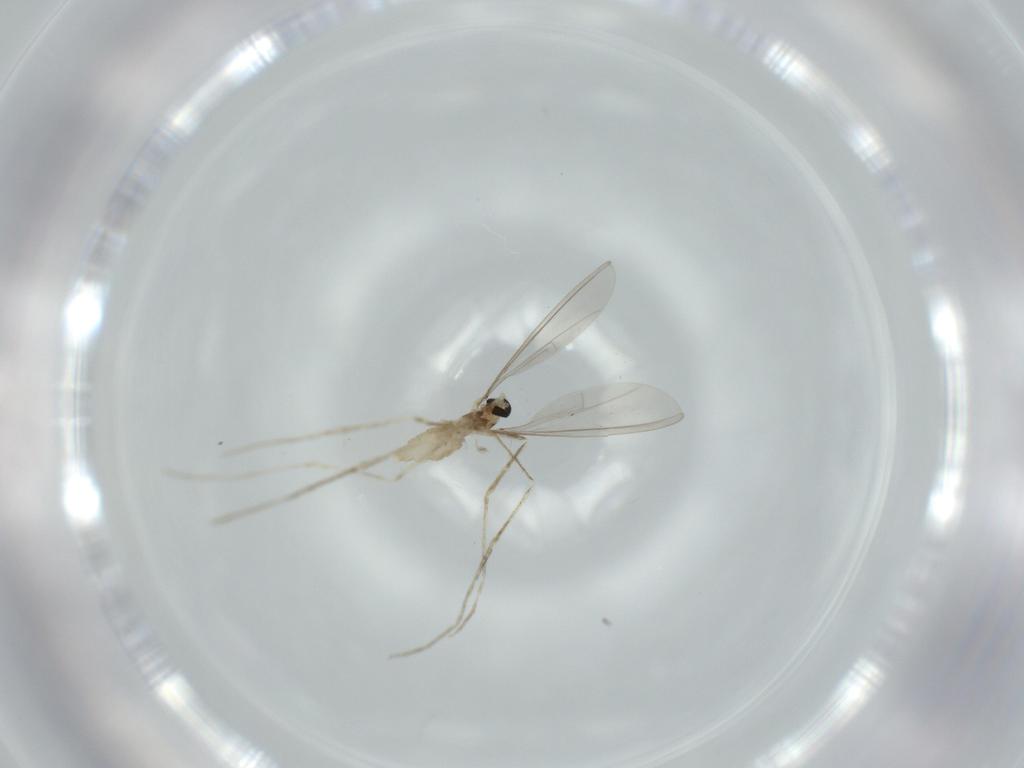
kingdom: Animalia
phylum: Arthropoda
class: Insecta
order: Diptera
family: Cecidomyiidae
